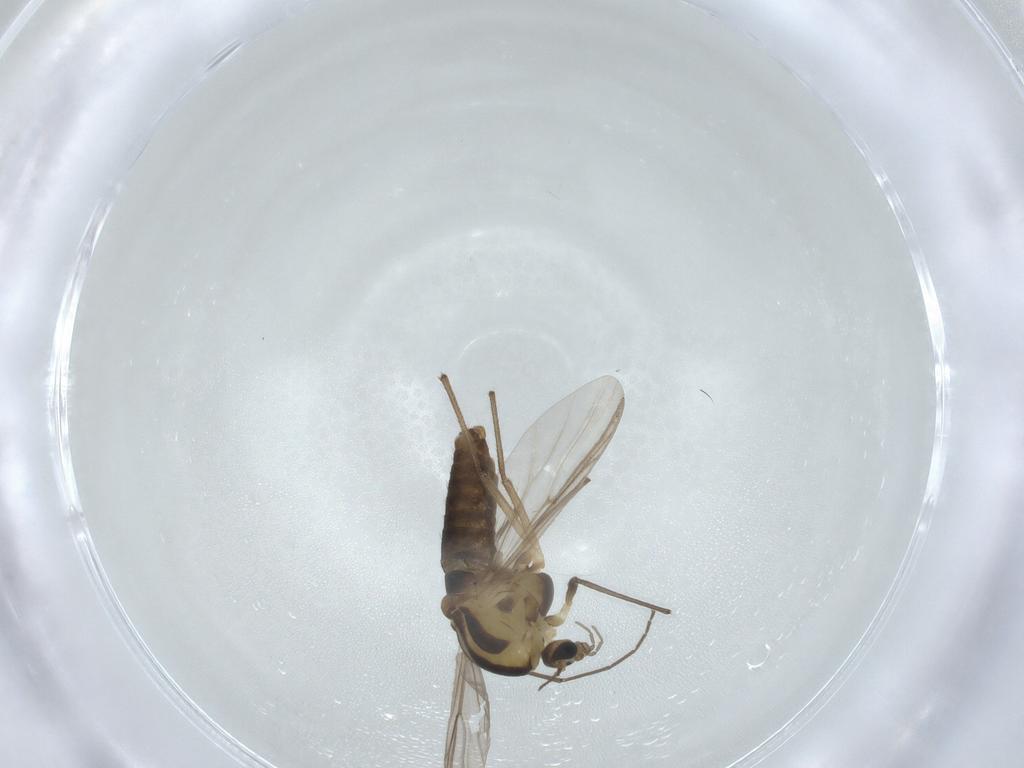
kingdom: Animalia
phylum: Arthropoda
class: Insecta
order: Diptera
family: Chironomidae
